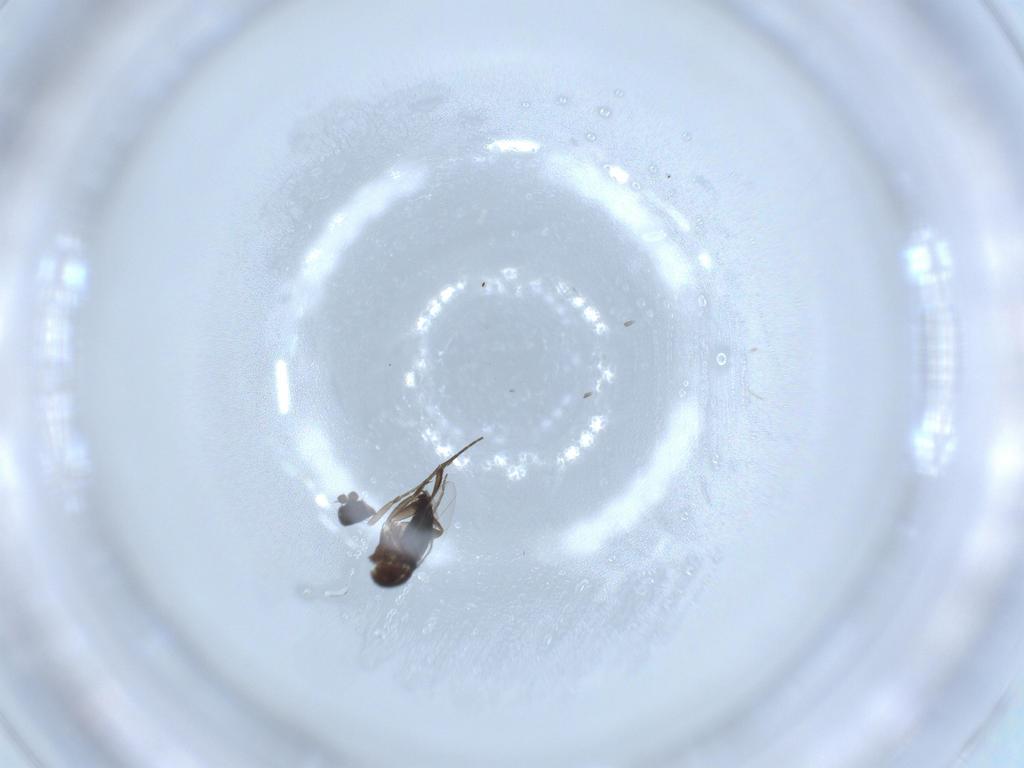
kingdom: Animalia
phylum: Arthropoda
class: Insecta
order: Diptera
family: Phoridae
